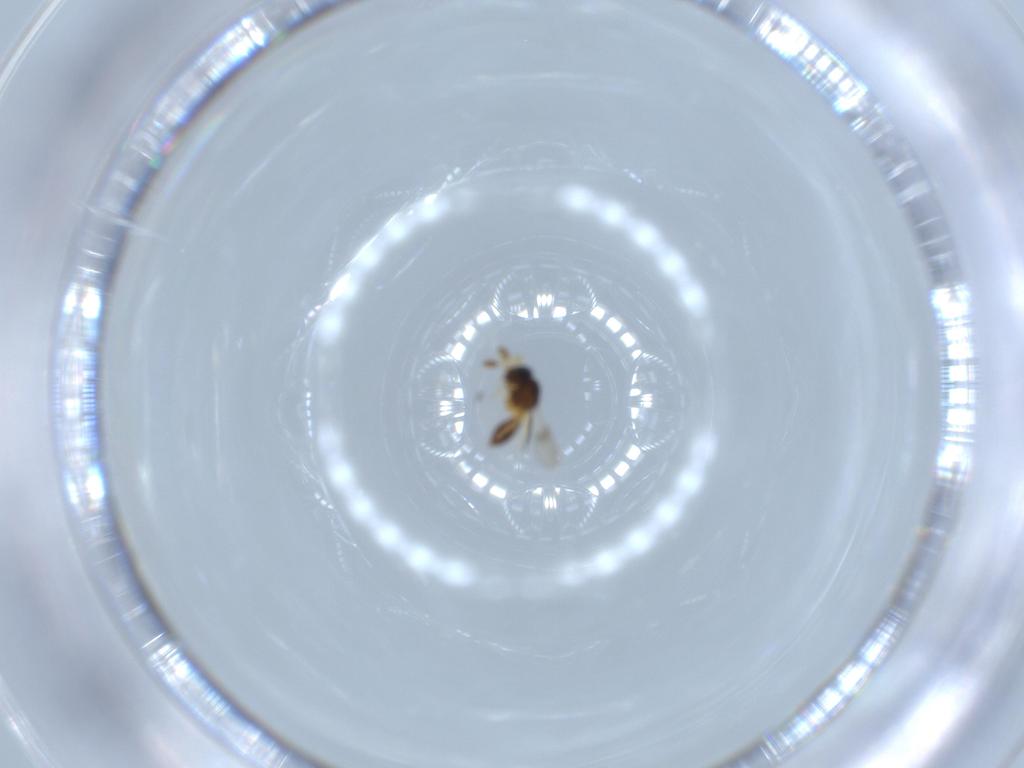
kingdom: Animalia
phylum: Arthropoda
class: Insecta
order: Hymenoptera
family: Scelionidae
